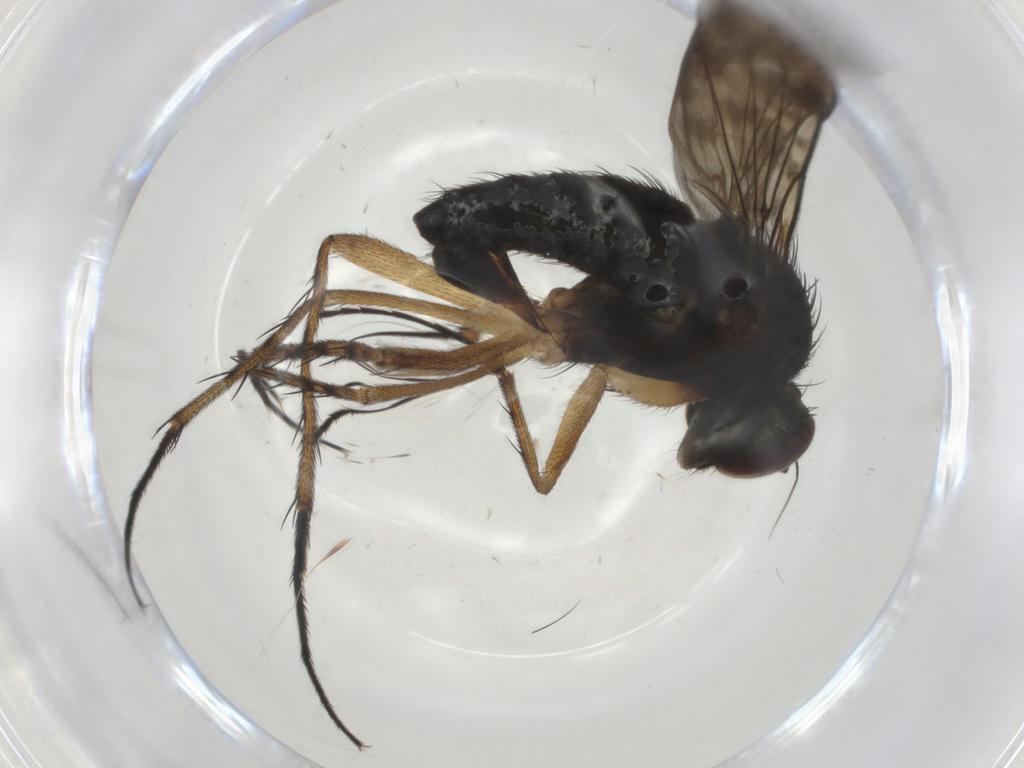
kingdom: Animalia
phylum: Arthropoda
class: Insecta
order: Diptera
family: Dolichopodidae
